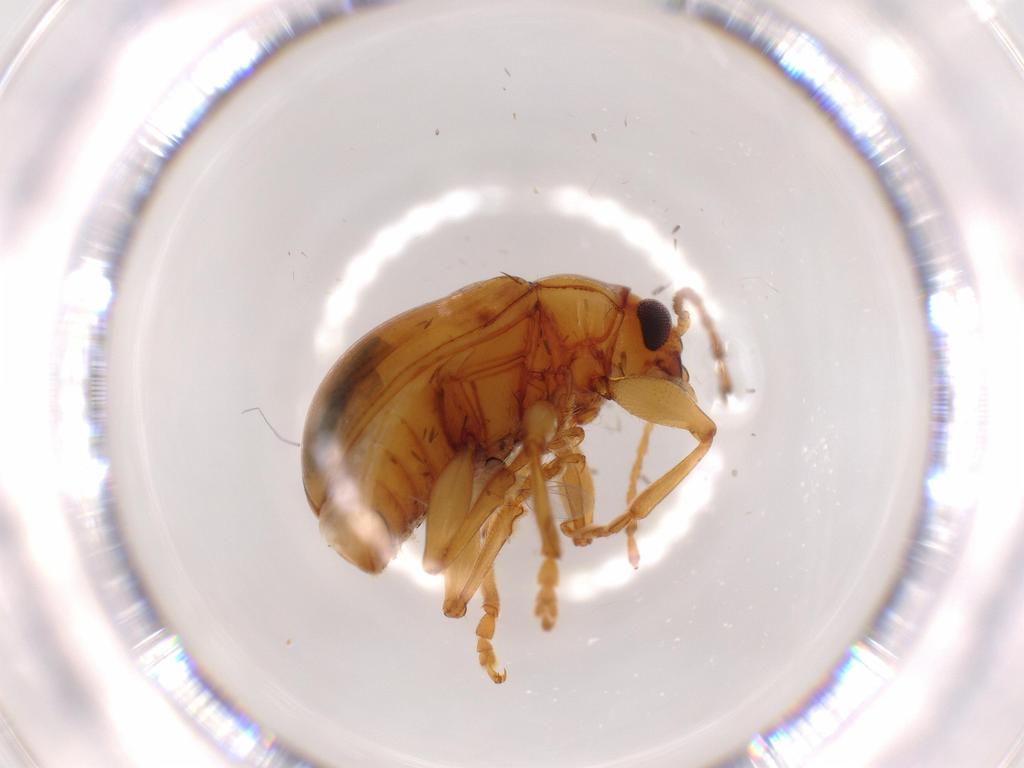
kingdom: Animalia
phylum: Arthropoda
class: Insecta
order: Coleoptera
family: Chrysomelidae
